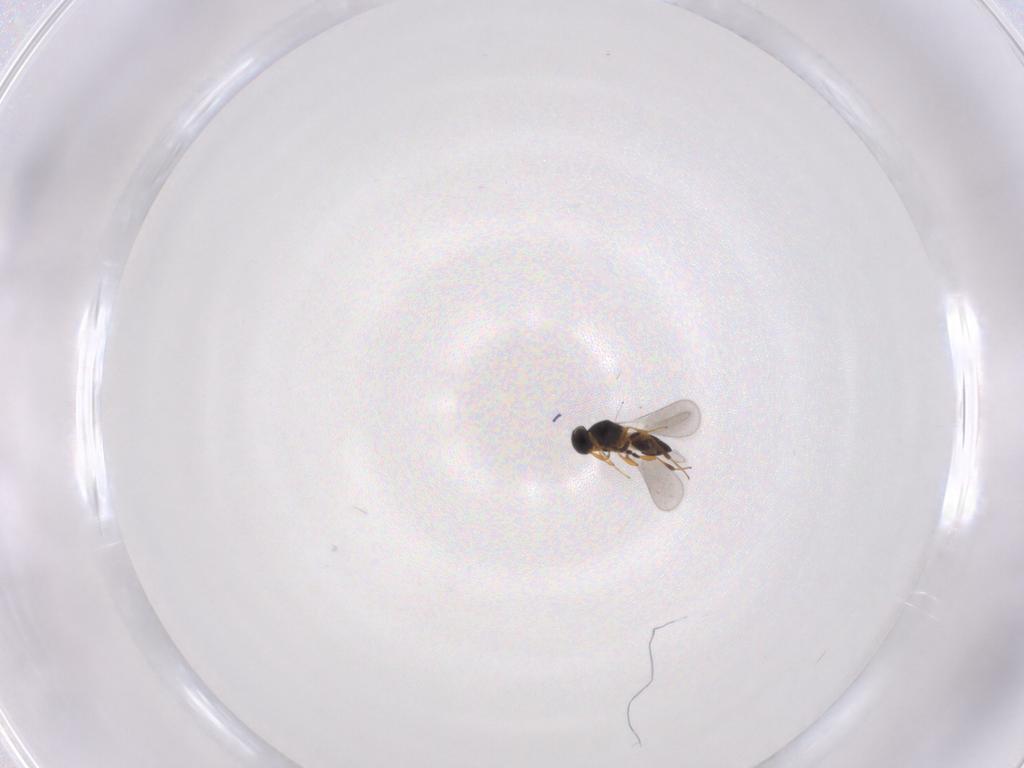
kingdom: Animalia
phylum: Arthropoda
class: Insecta
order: Hymenoptera
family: Platygastridae
